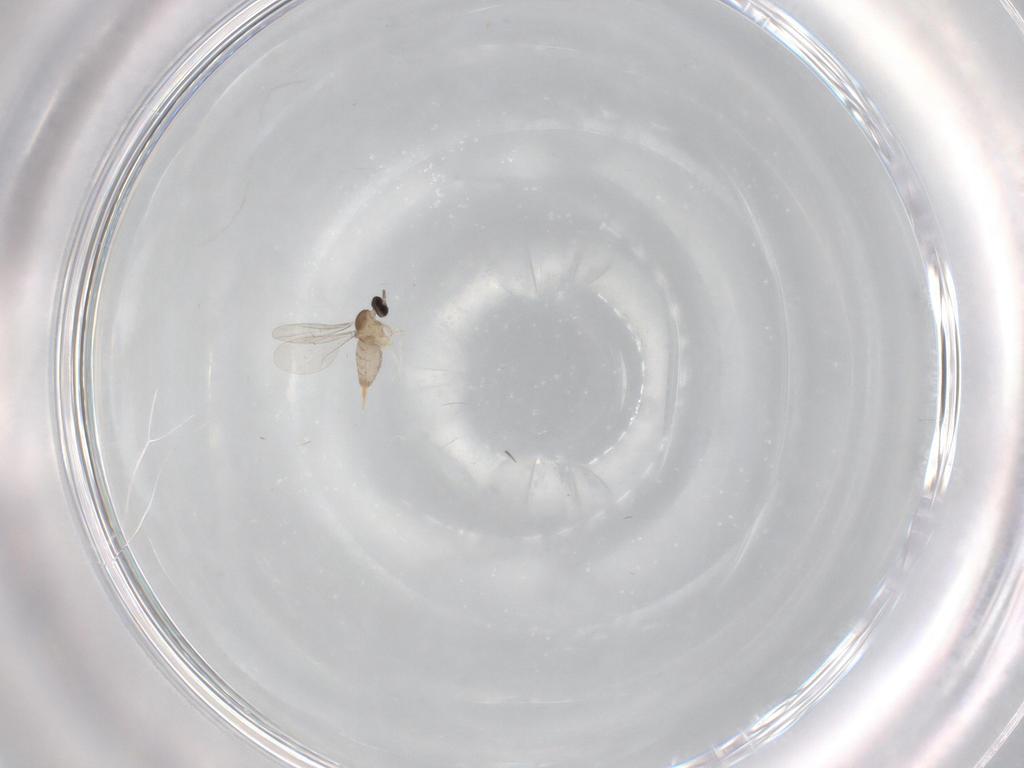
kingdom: Animalia
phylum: Arthropoda
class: Insecta
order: Diptera
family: Cecidomyiidae
